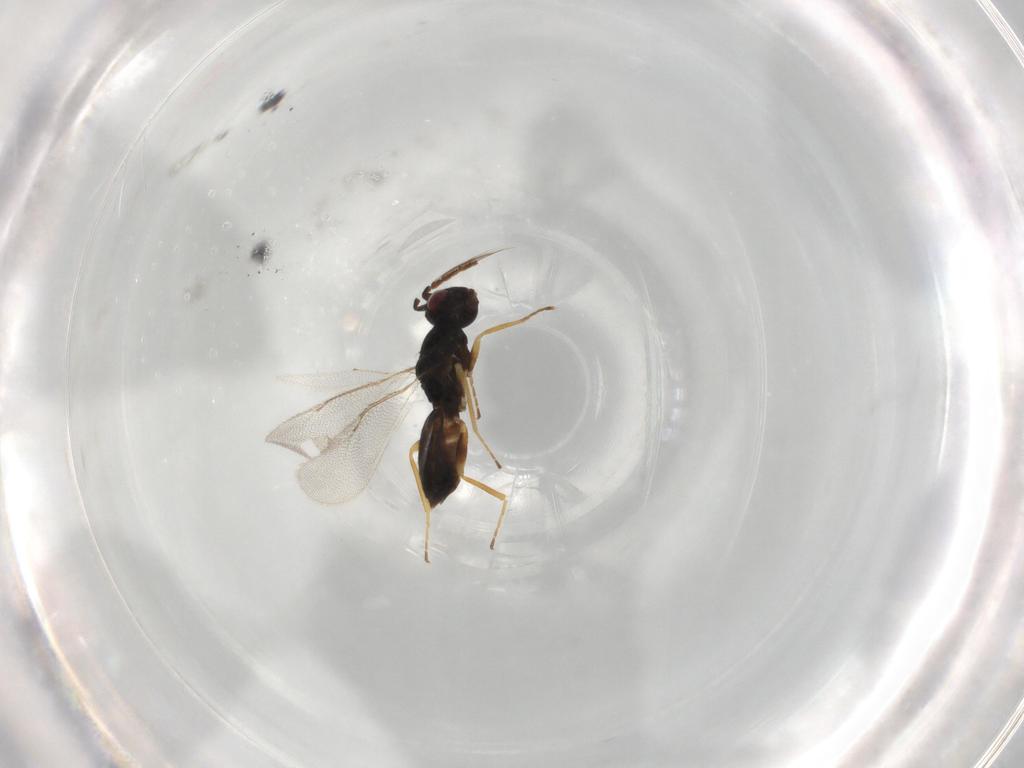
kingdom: Animalia
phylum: Arthropoda
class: Insecta
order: Hymenoptera
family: Eulophidae
